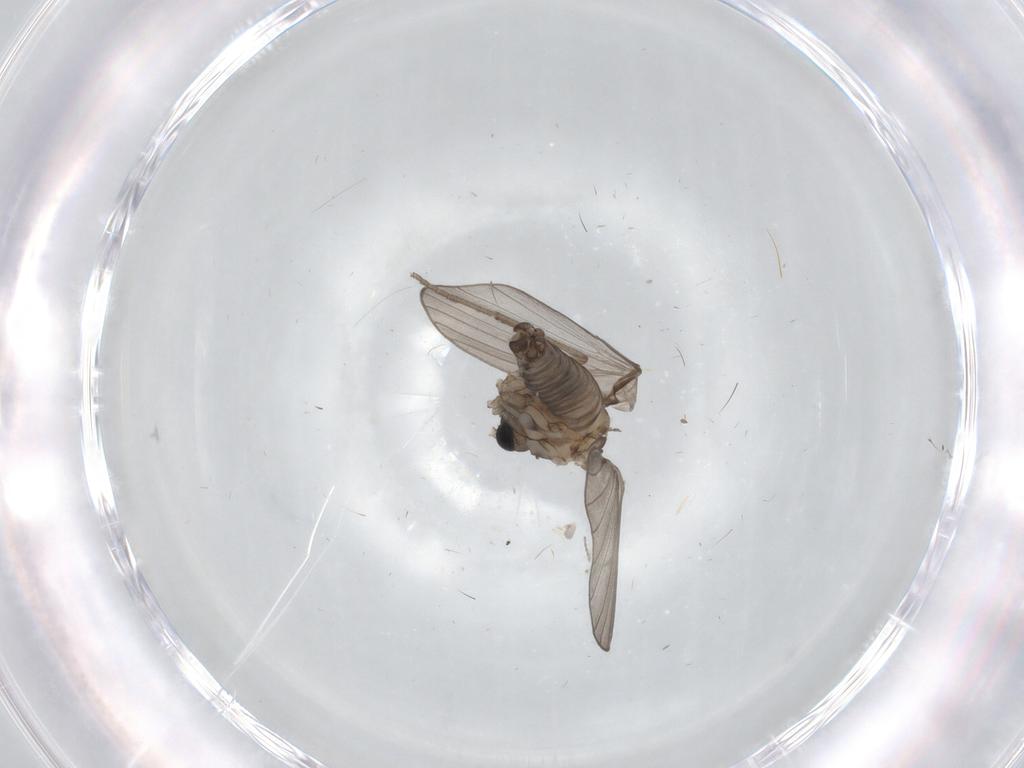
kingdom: Animalia
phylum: Arthropoda
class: Insecta
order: Diptera
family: Psychodidae
